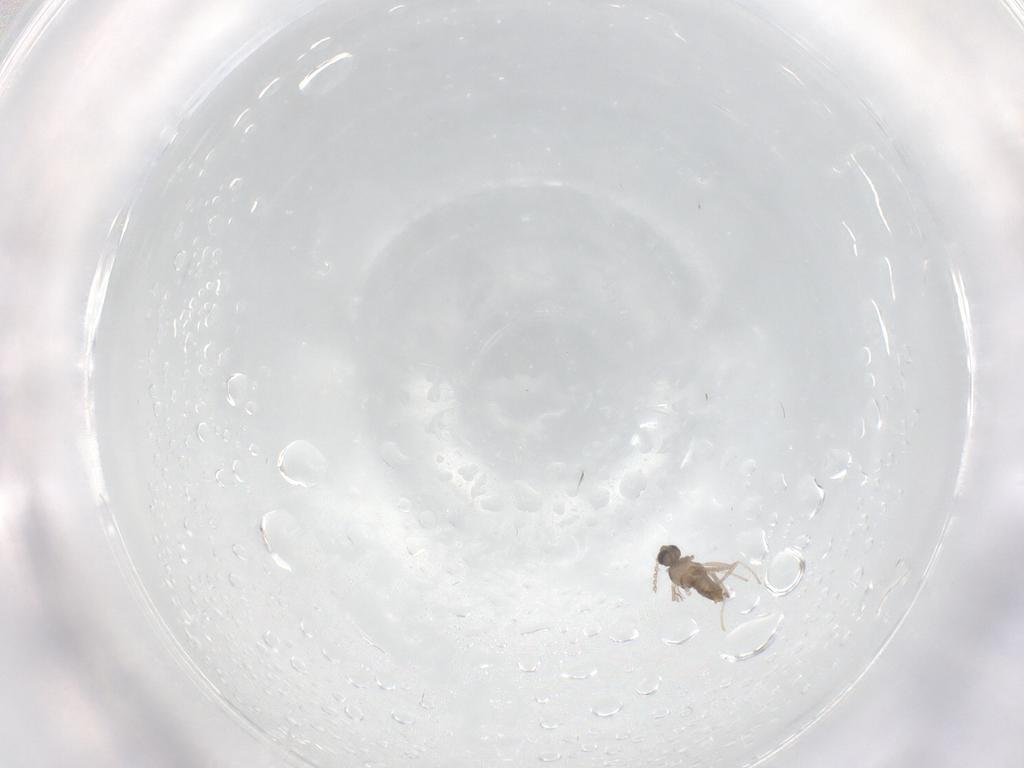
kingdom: Animalia
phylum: Arthropoda
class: Insecta
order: Diptera
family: Cecidomyiidae
